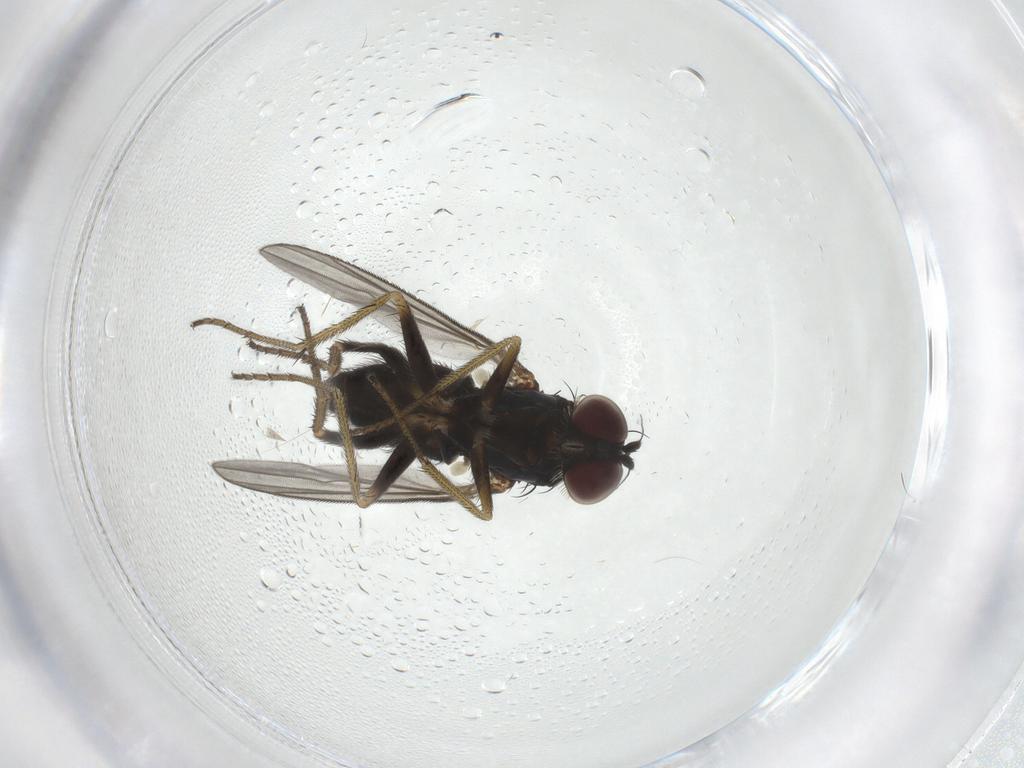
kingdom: Animalia
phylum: Arthropoda
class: Insecta
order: Diptera
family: Dolichopodidae
